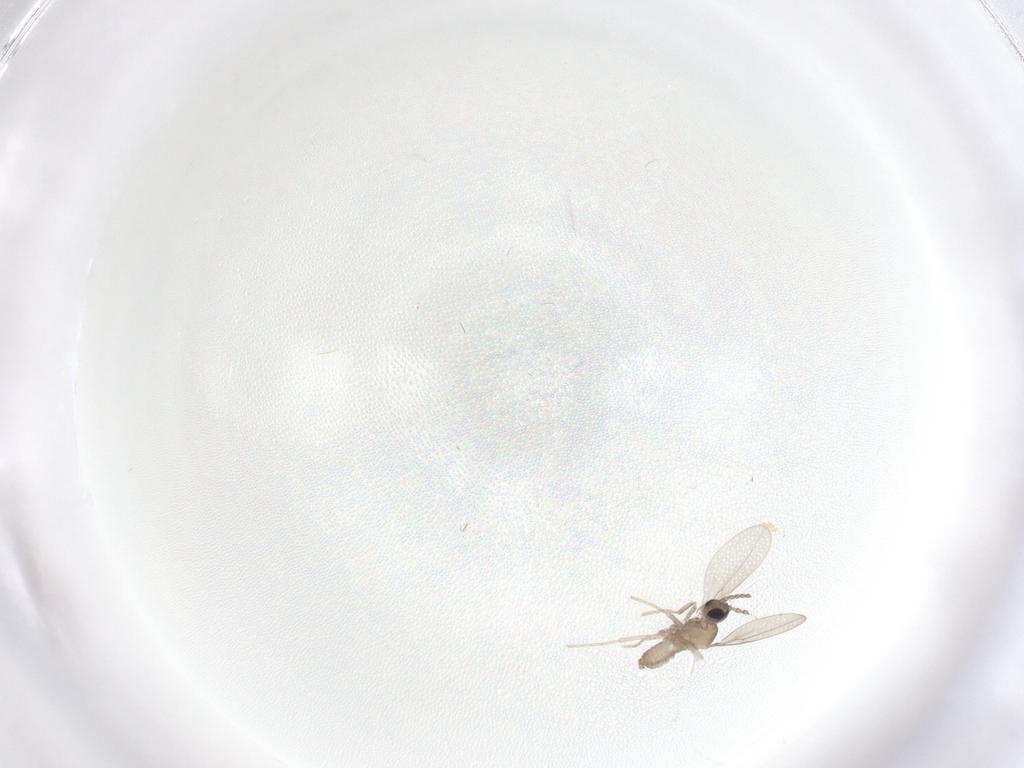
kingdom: Animalia
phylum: Arthropoda
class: Insecta
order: Diptera
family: Cecidomyiidae
